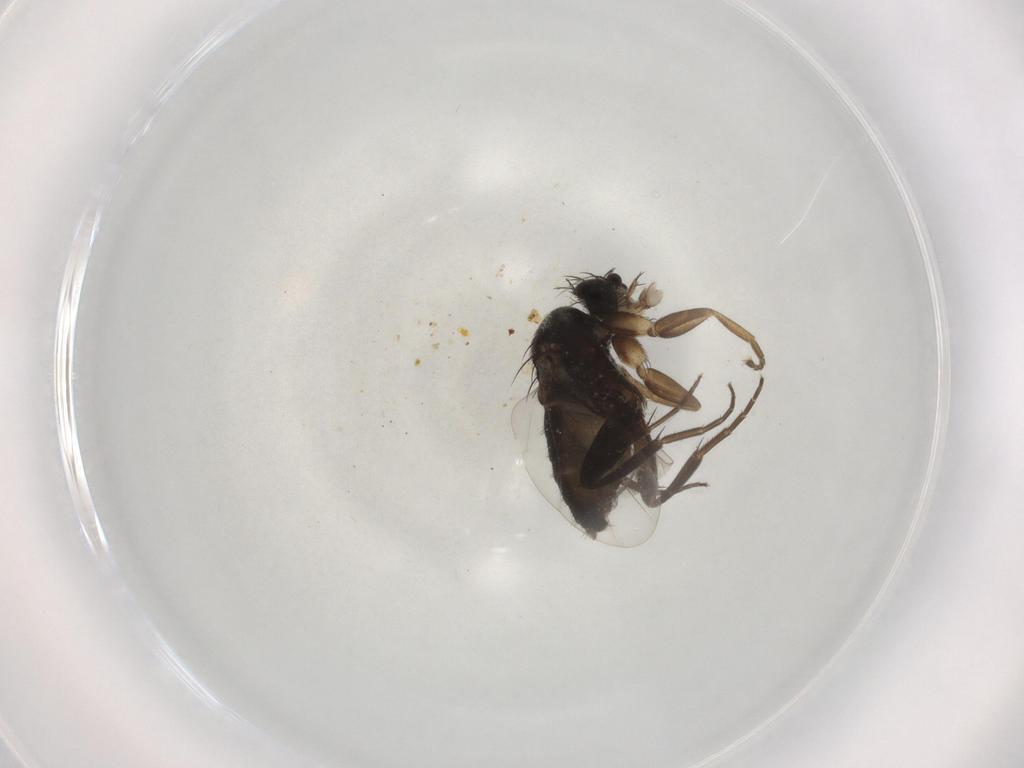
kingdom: Animalia
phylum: Arthropoda
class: Insecta
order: Diptera
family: Phoridae
